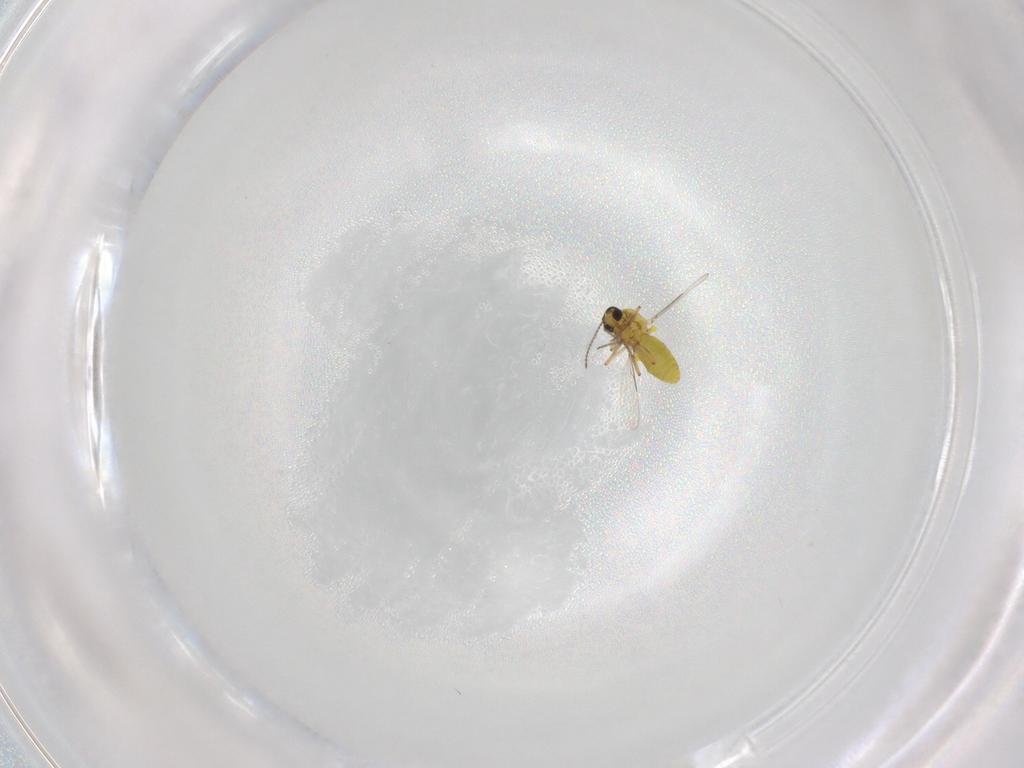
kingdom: Animalia
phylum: Arthropoda
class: Insecta
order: Diptera
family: Ceratopogonidae
